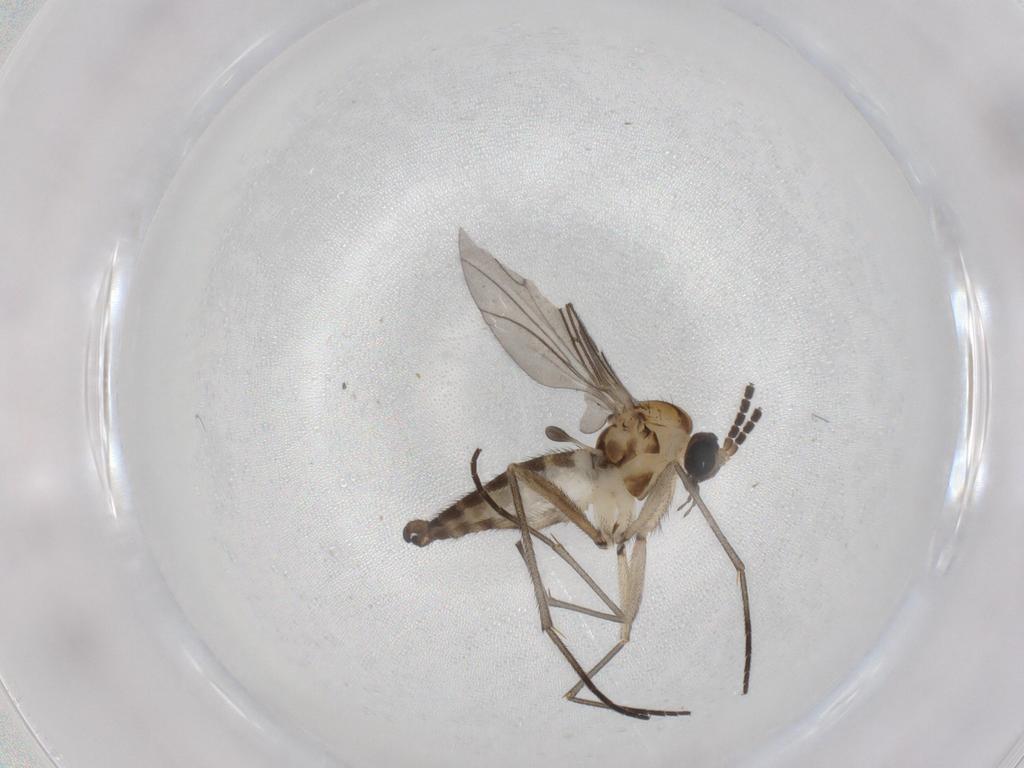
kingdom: Animalia
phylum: Arthropoda
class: Insecta
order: Diptera
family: Sciaridae
